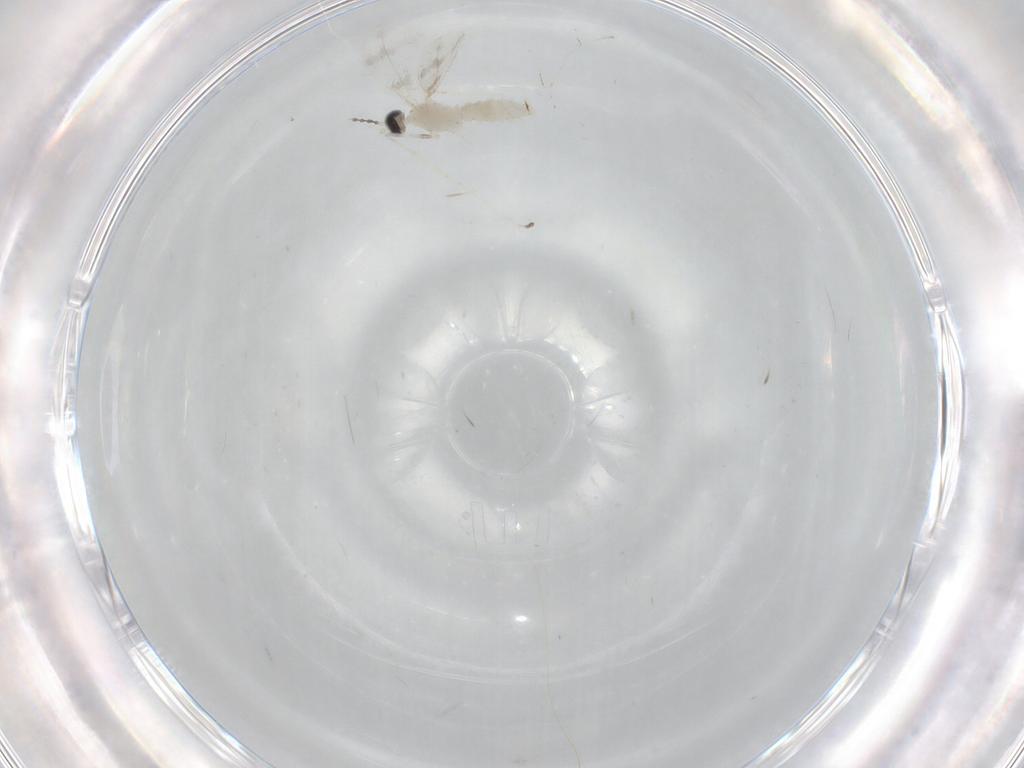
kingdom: Animalia
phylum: Arthropoda
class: Insecta
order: Diptera
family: Cecidomyiidae
